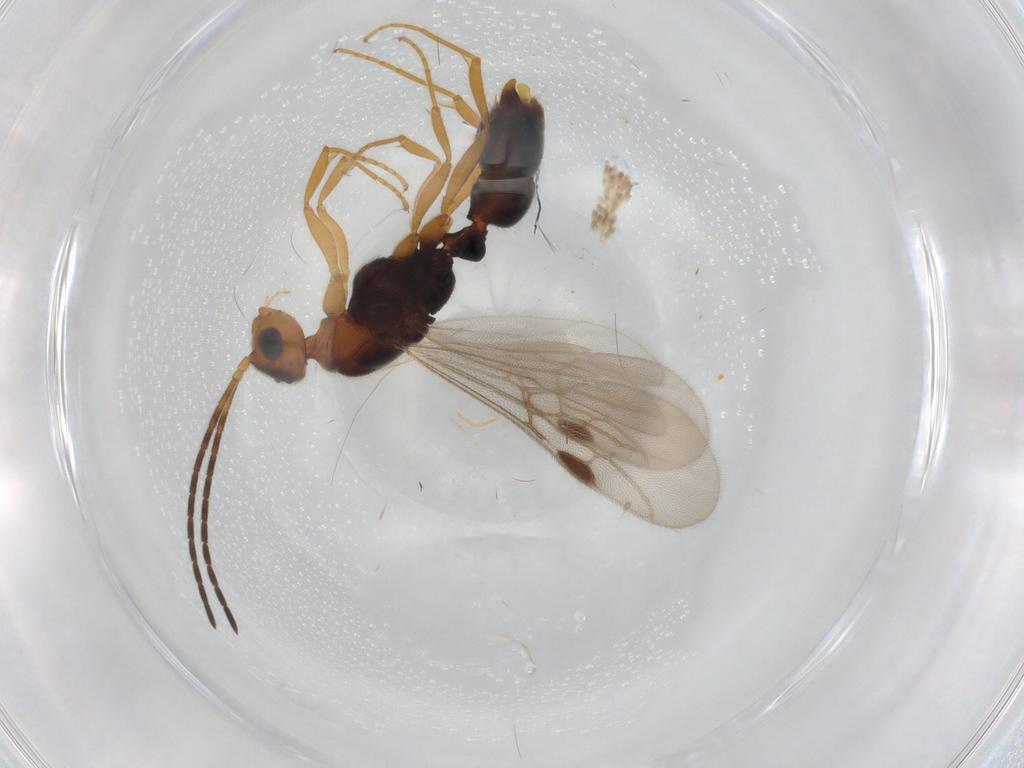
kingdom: Animalia
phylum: Arthropoda
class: Insecta
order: Hymenoptera
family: Formicidae
